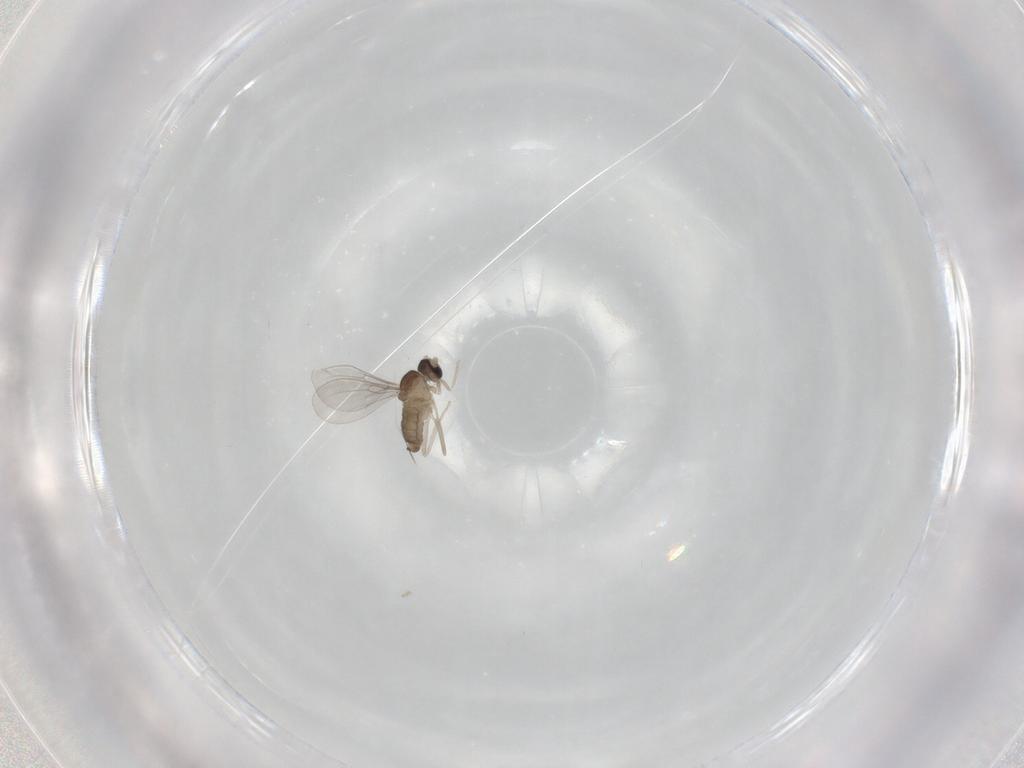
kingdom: Animalia
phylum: Arthropoda
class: Insecta
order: Diptera
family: Cecidomyiidae
